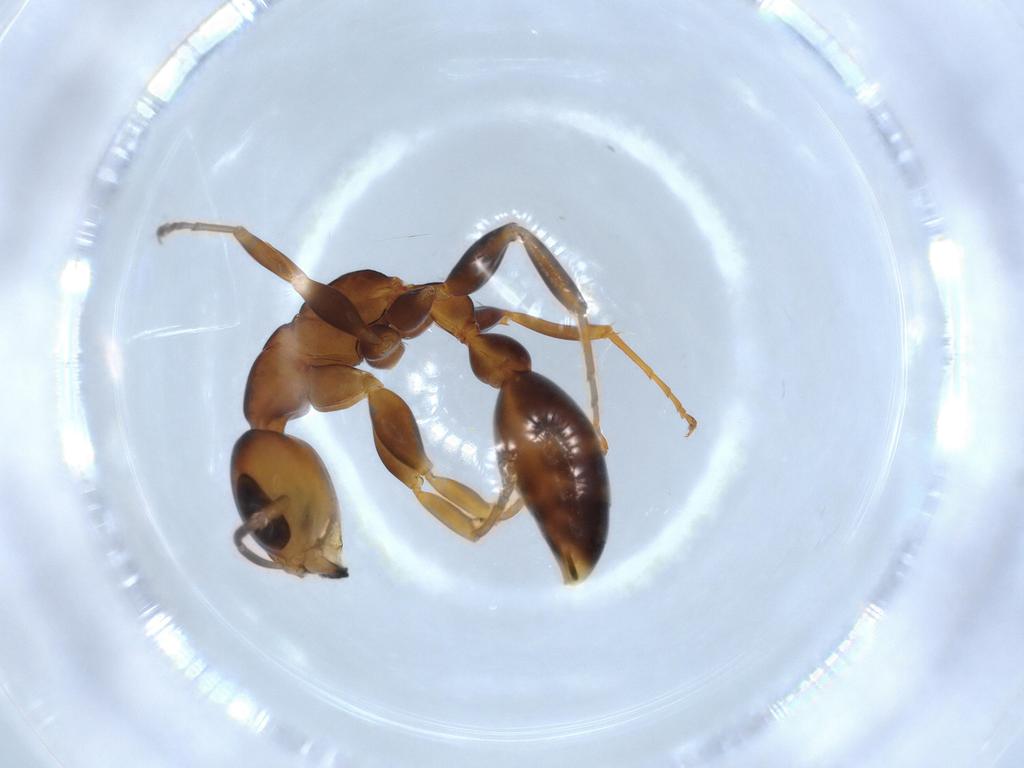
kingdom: Animalia
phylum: Arthropoda
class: Insecta
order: Hymenoptera
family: Formicidae
